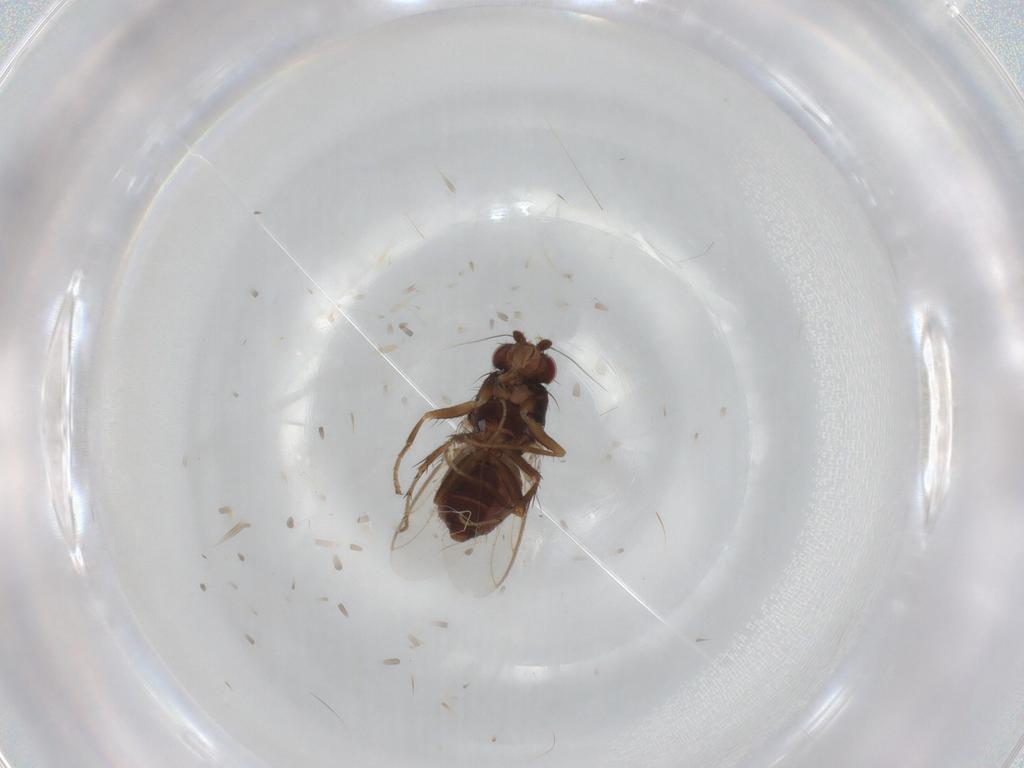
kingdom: Animalia
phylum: Arthropoda
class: Insecta
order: Diptera
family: Sphaeroceridae
